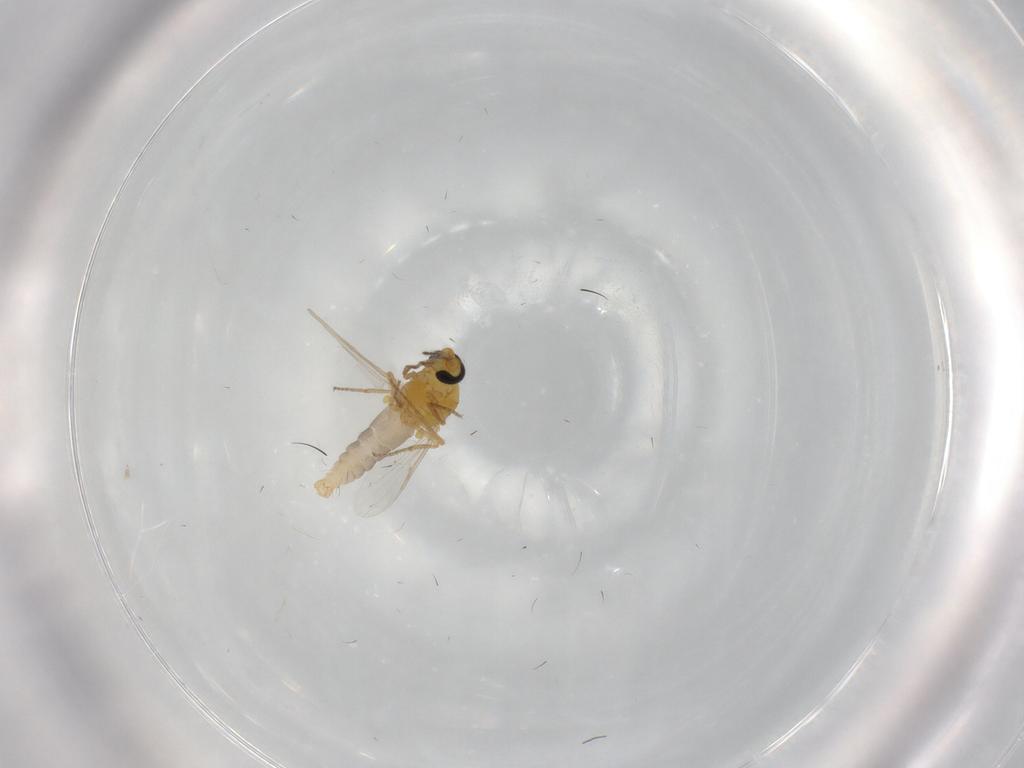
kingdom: Animalia
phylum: Arthropoda
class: Insecta
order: Diptera
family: Ceratopogonidae
